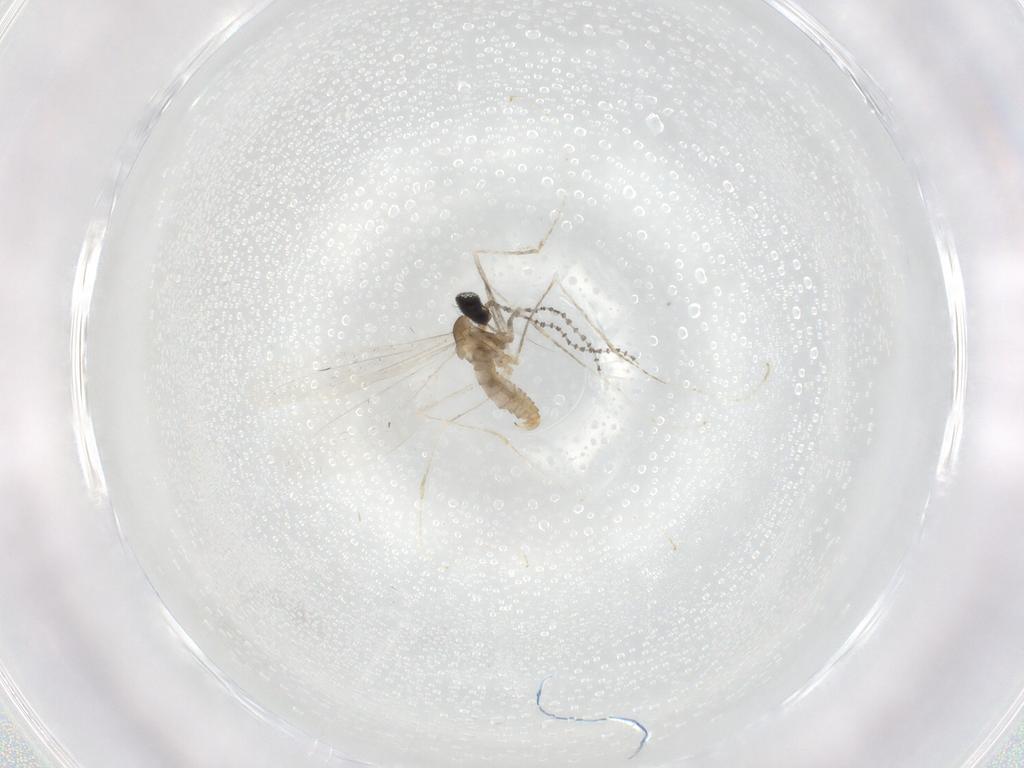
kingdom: Animalia
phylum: Arthropoda
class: Insecta
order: Diptera
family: Cecidomyiidae
